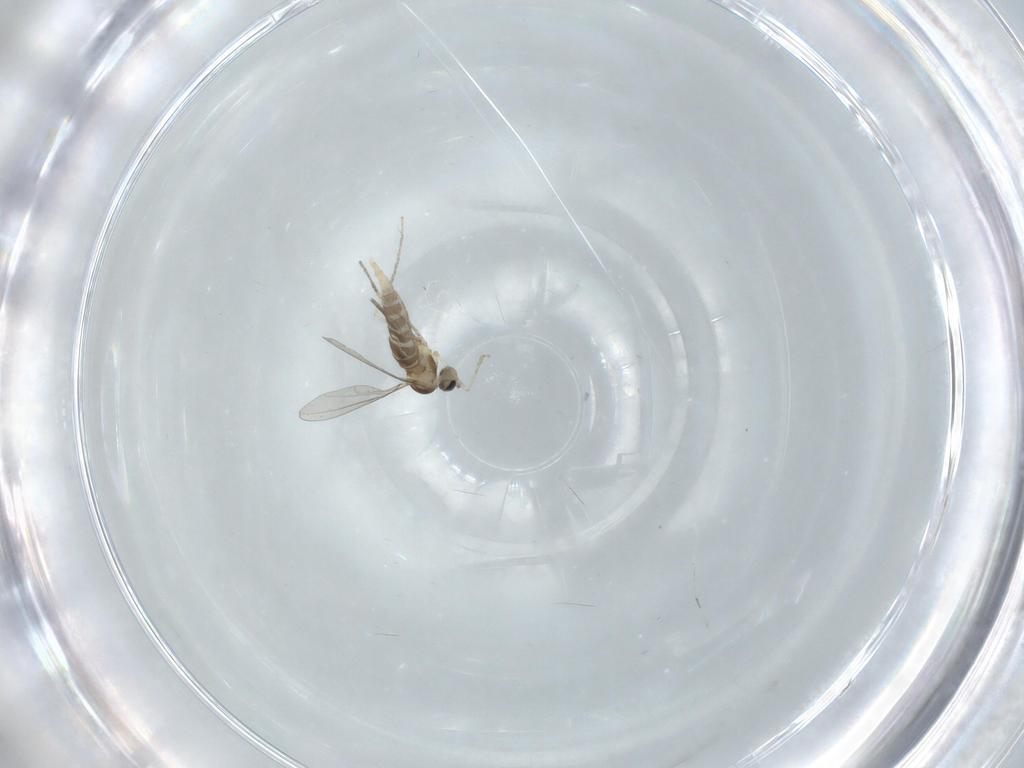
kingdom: Animalia
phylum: Arthropoda
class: Insecta
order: Diptera
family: Cecidomyiidae
